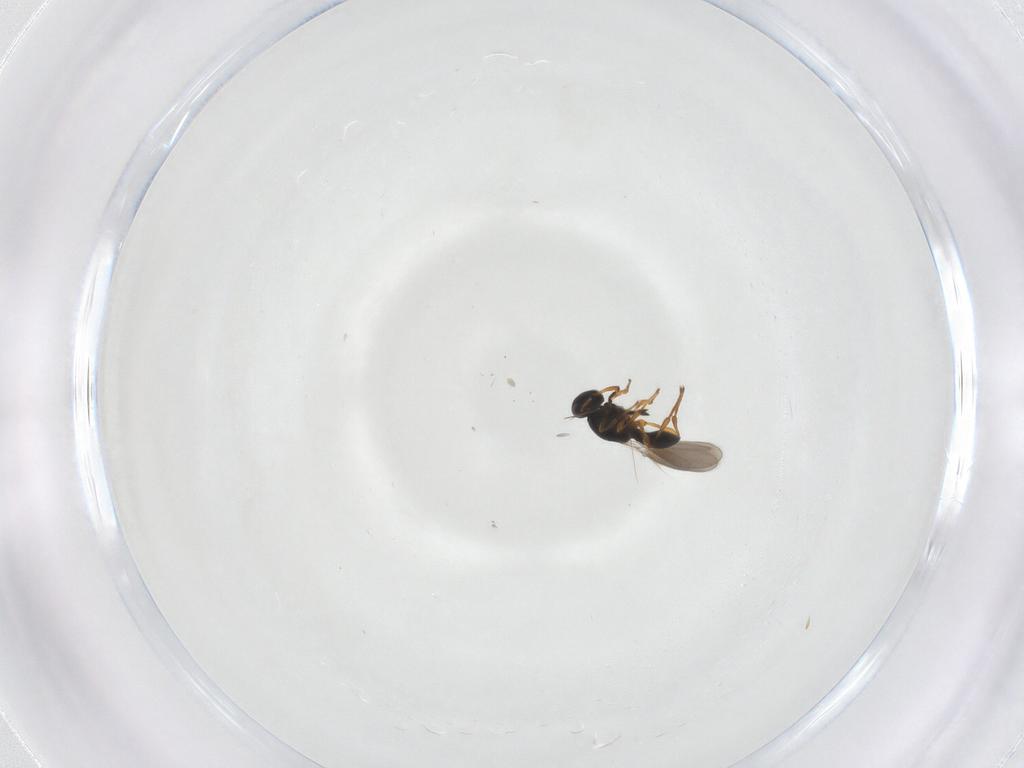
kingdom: Animalia
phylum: Arthropoda
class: Insecta
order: Hymenoptera
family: Platygastridae
